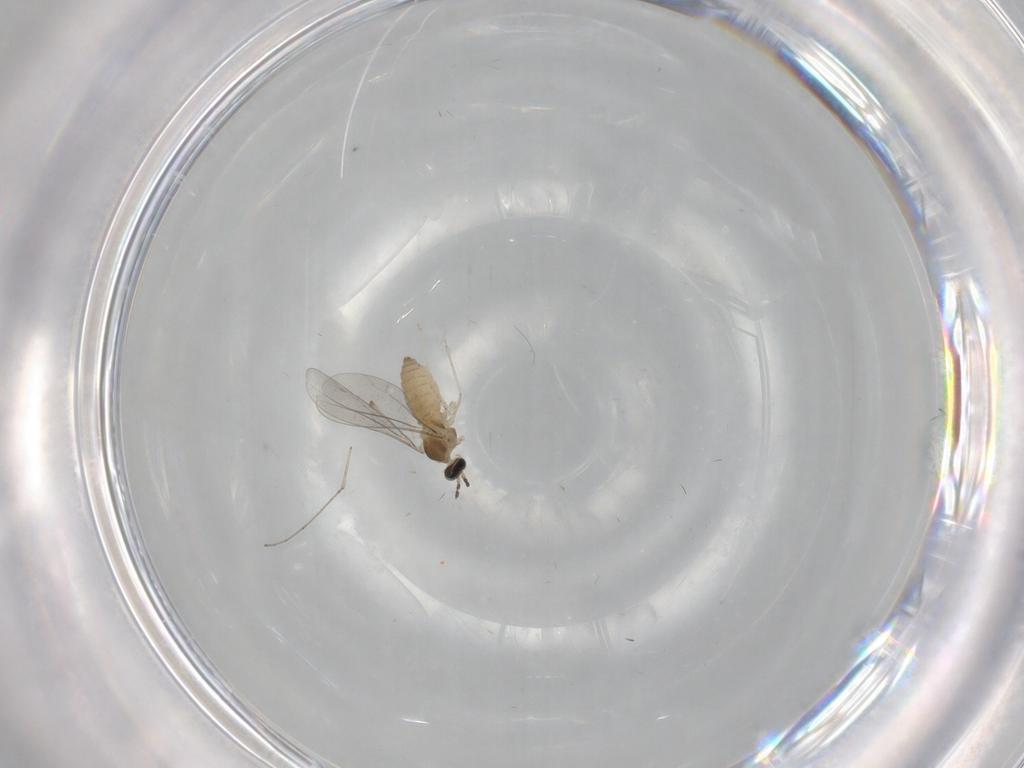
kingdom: Animalia
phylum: Arthropoda
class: Insecta
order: Diptera
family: Cecidomyiidae
